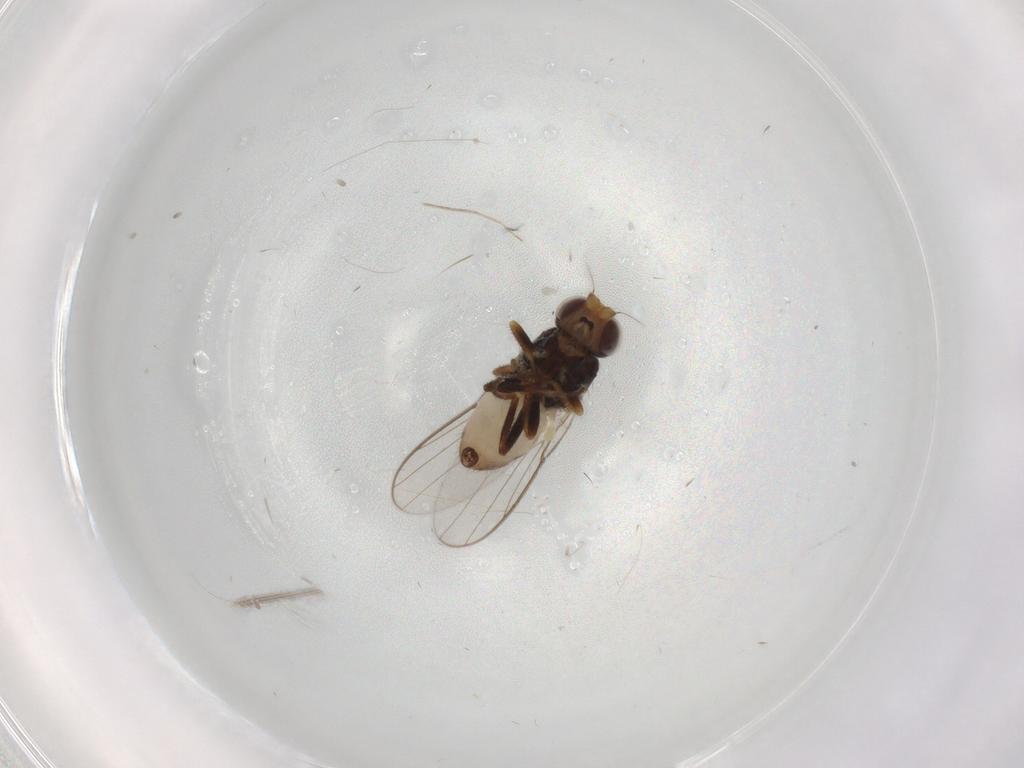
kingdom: Animalia
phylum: Arthropoda
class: Insecta
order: Diptera
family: Chloropidae
